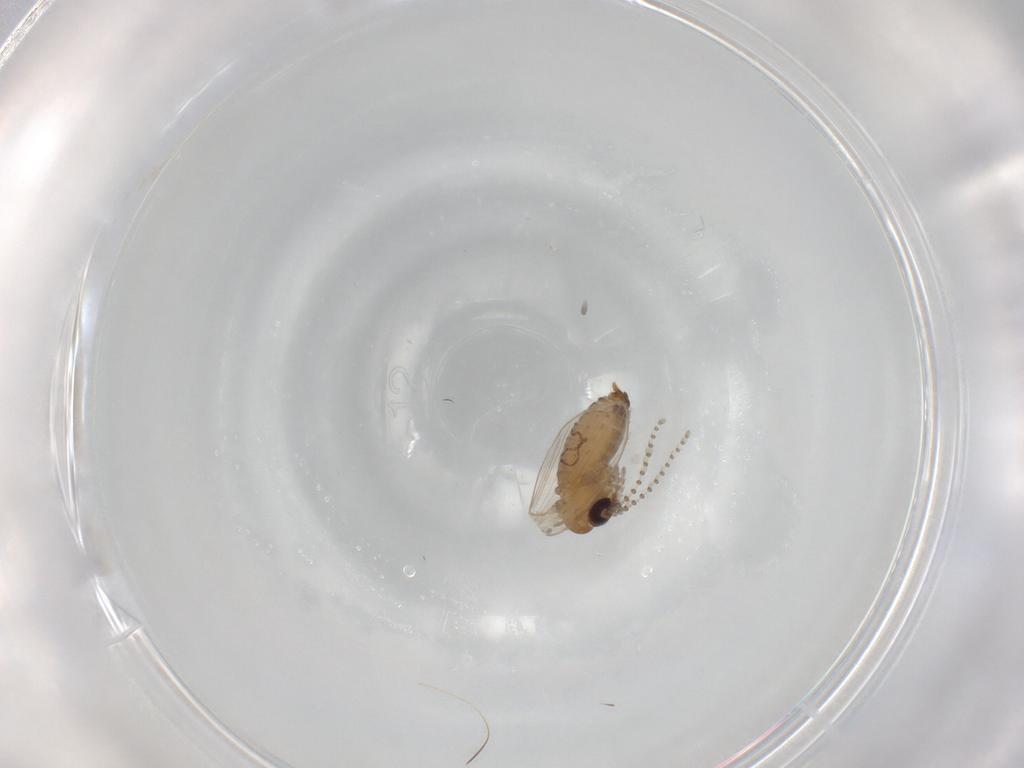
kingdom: Animalia
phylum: Arthropoda
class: Insecta
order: Diptera
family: Psychodidae
